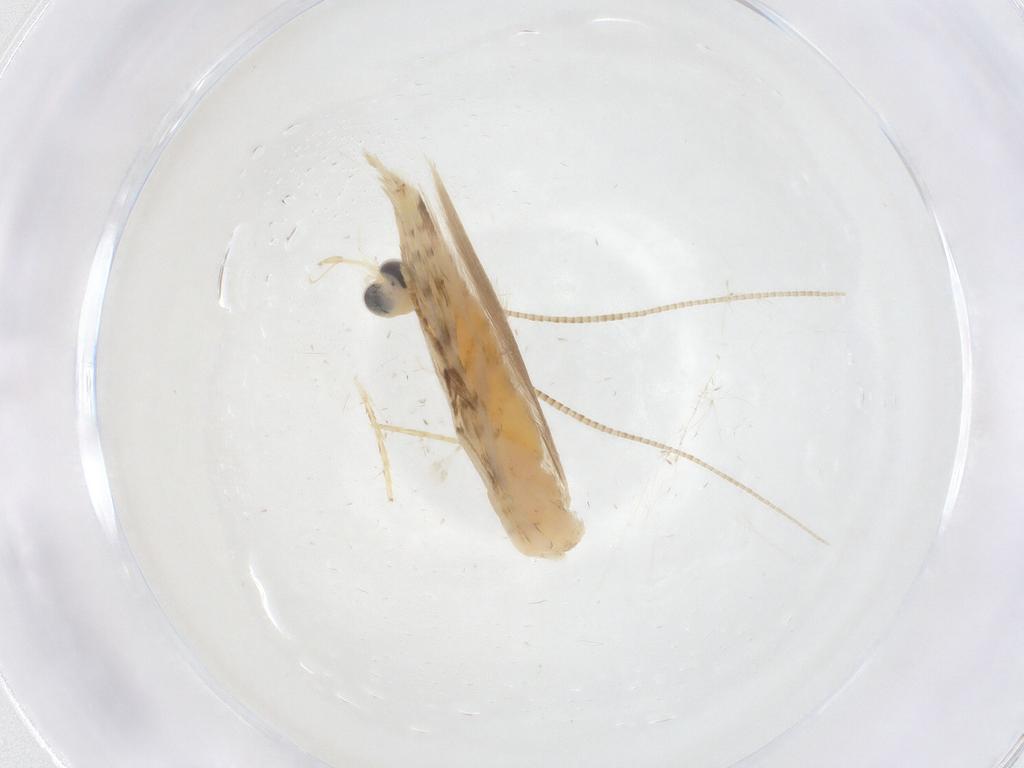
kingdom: Animalia
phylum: Arthropoda
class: Insecta
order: Lepidoptera
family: Gracillariidae
